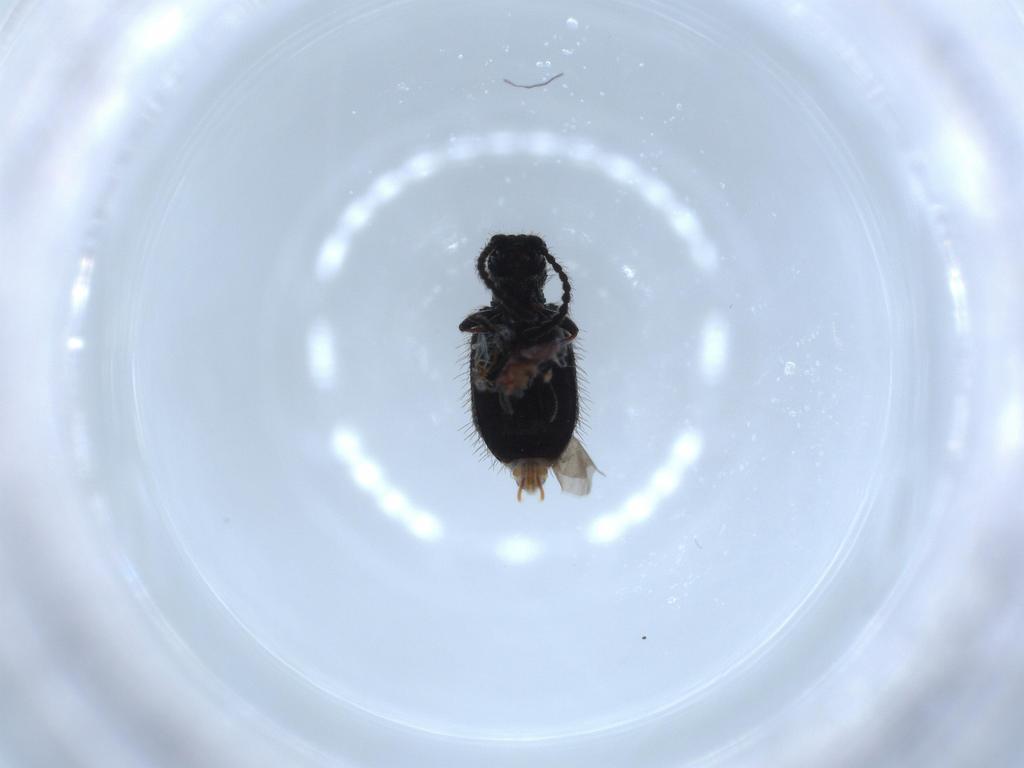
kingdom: Animalia
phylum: Arthropoda
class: Insecta
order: Coleoptera
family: Ptinidae
